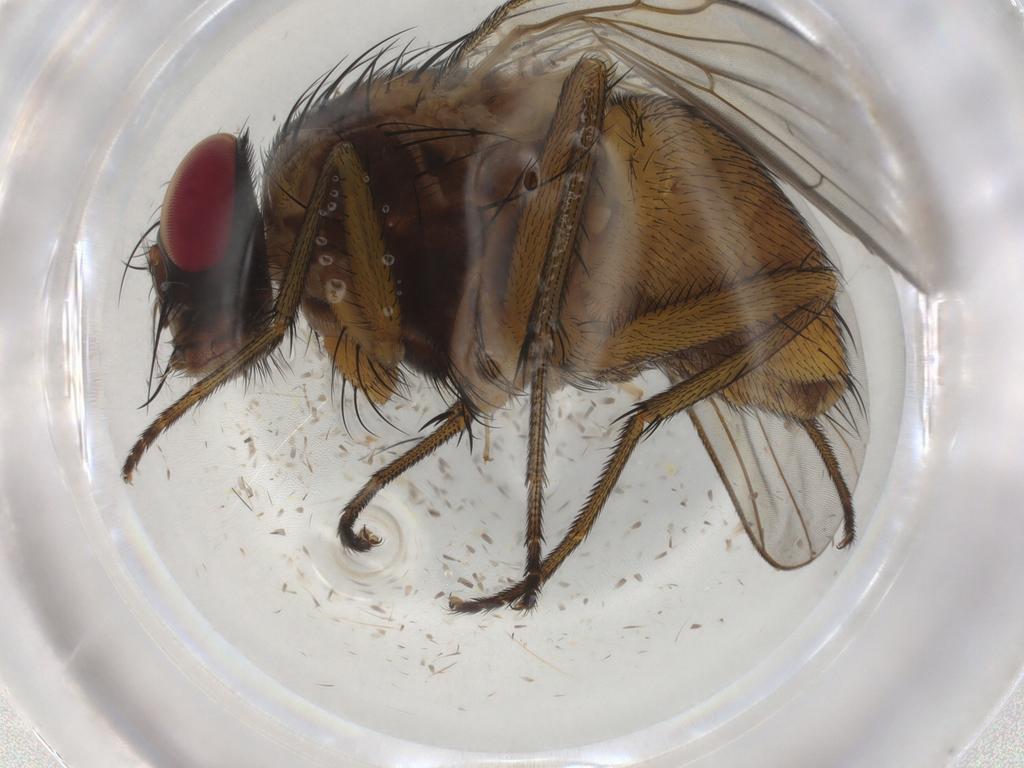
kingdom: Animalia
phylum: Arthropoda
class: Insecta
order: Diptera
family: Muscidae
